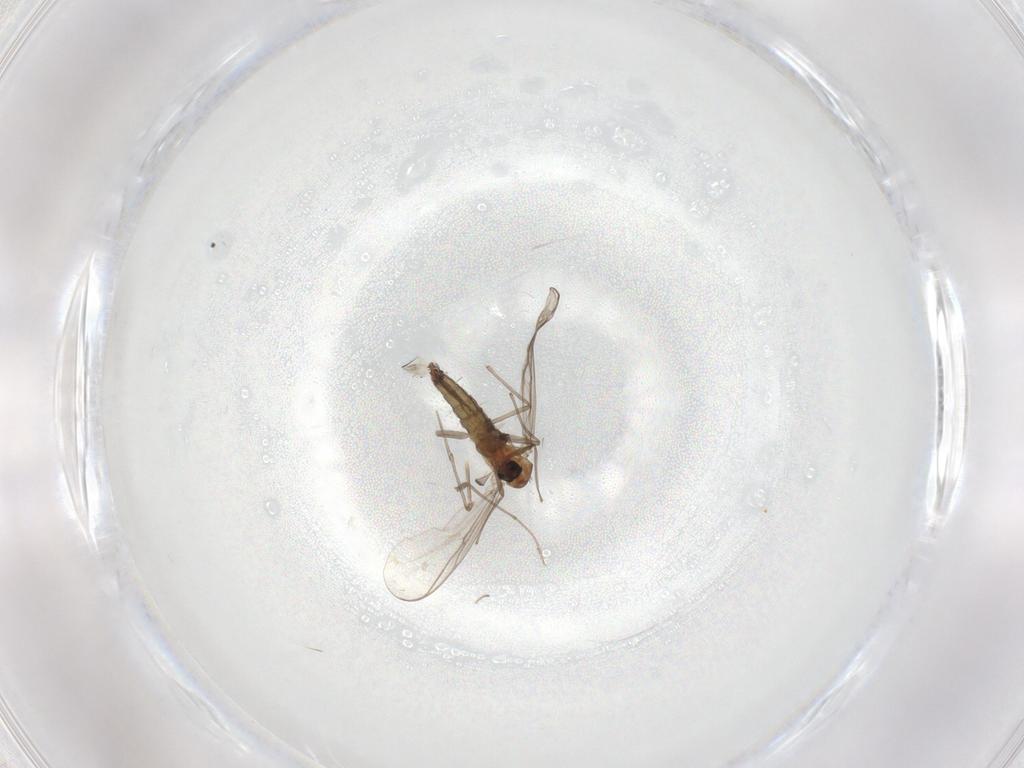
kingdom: Animalia
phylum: Arthropoda
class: Insecta
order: Diptera
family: Chironomidae
